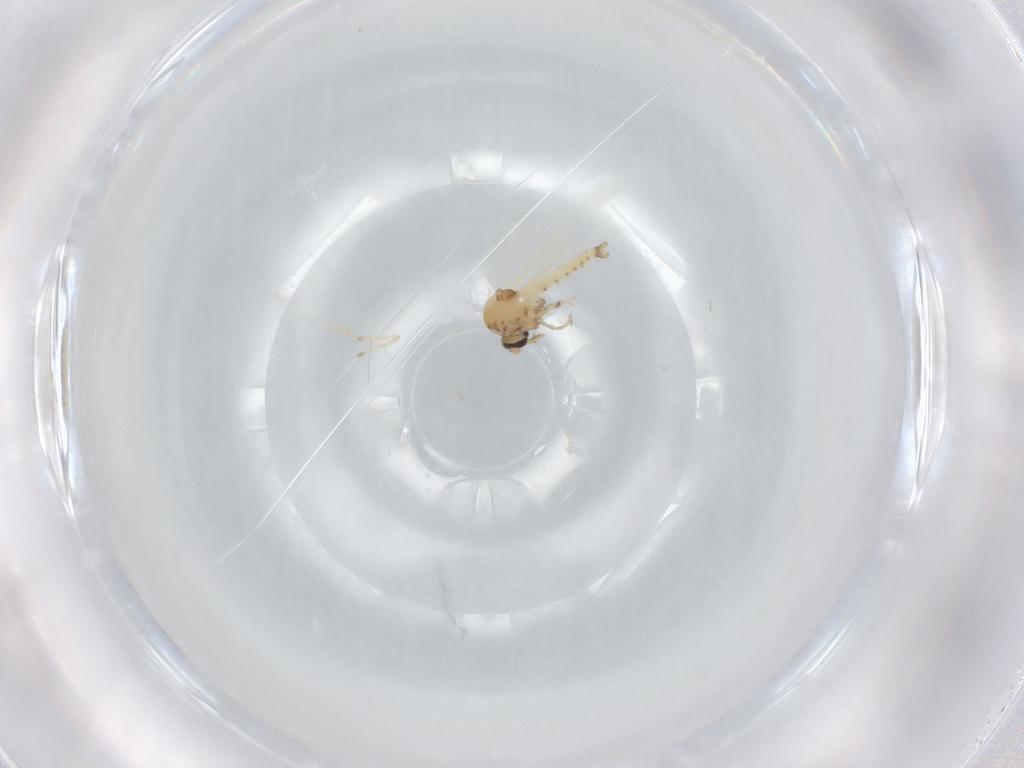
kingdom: Animalia
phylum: Arthropoda
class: Insecta
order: Diptera
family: Ceratopogonidae
